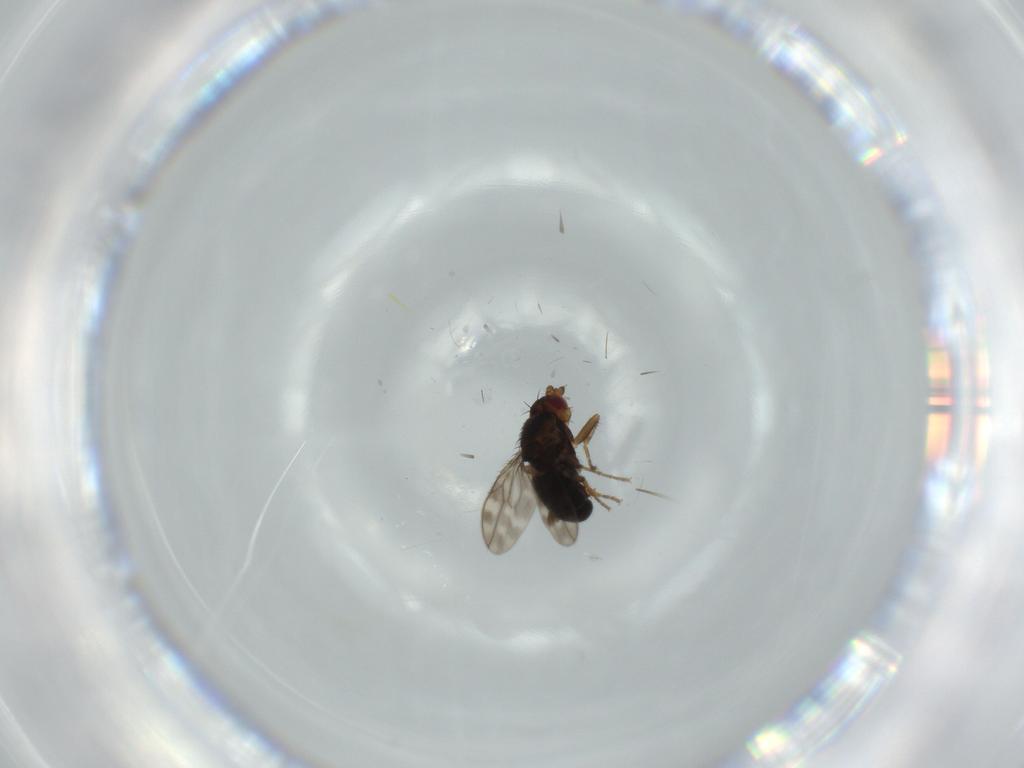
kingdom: Animalia
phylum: Arthropoda
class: Insecta
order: Diptera
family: Sphaeroceridae
